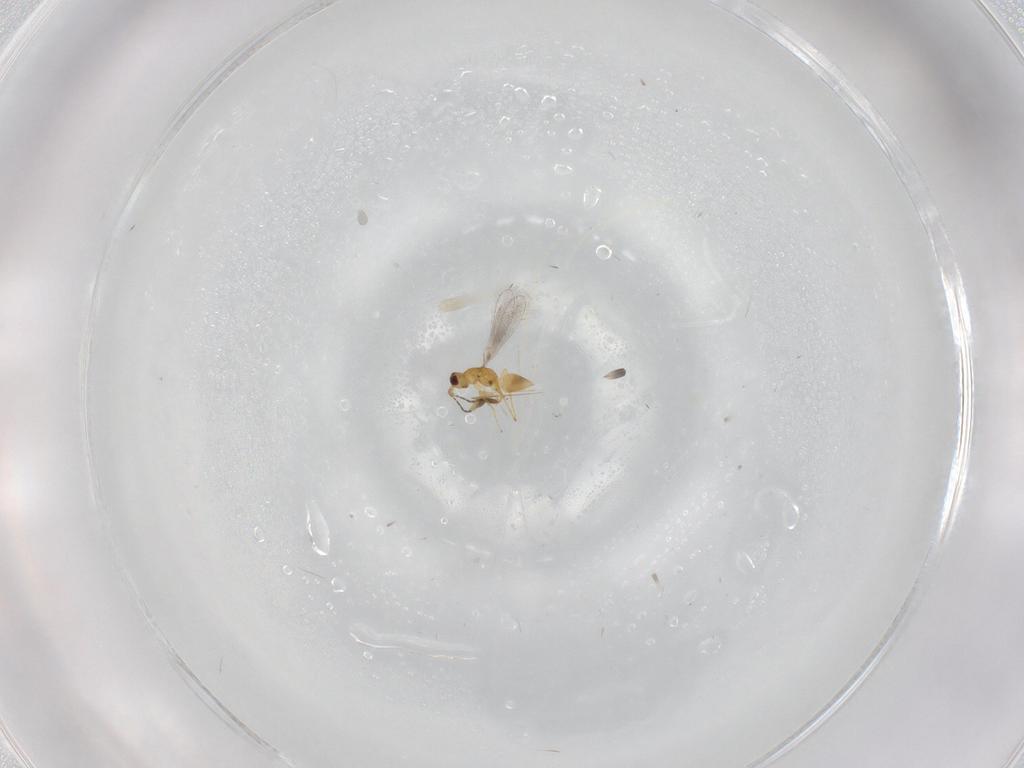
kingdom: Animalia
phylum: Arthropoda
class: Insecta
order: Hymenoptera
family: Mymaridae
